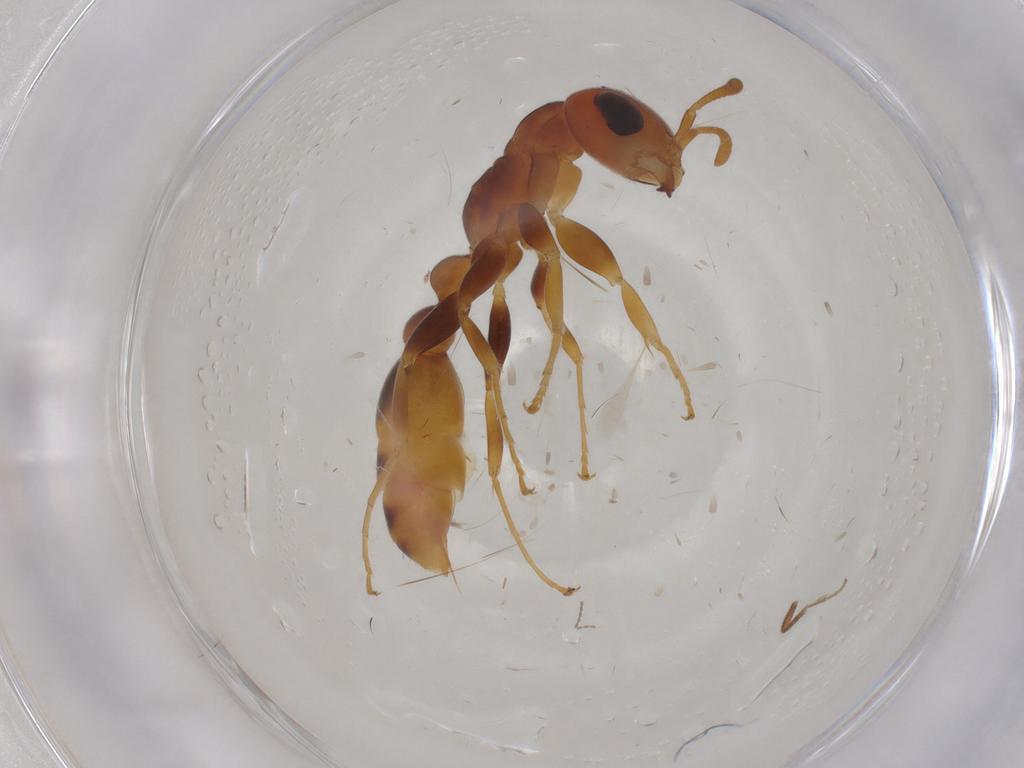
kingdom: Animalia
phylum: Arthropoda
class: Insecta
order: Hymenoptera
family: Formicidae
